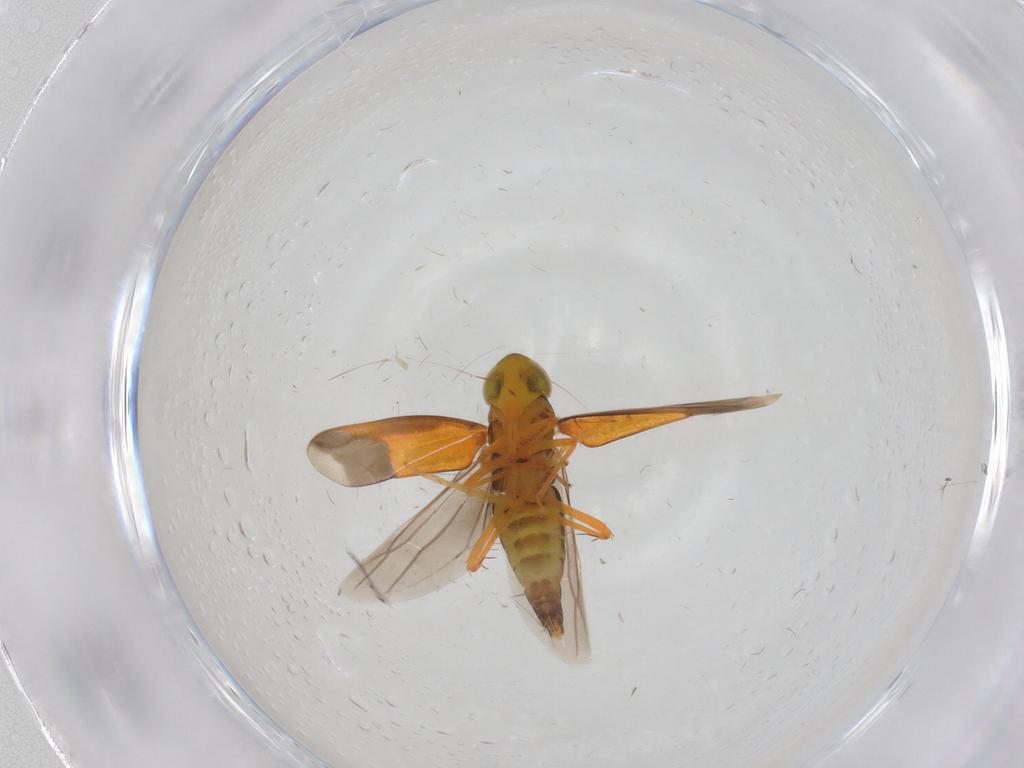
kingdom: Animalia
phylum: Arthropoda
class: Insecta
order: Hemiptera
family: Cicadellidae
